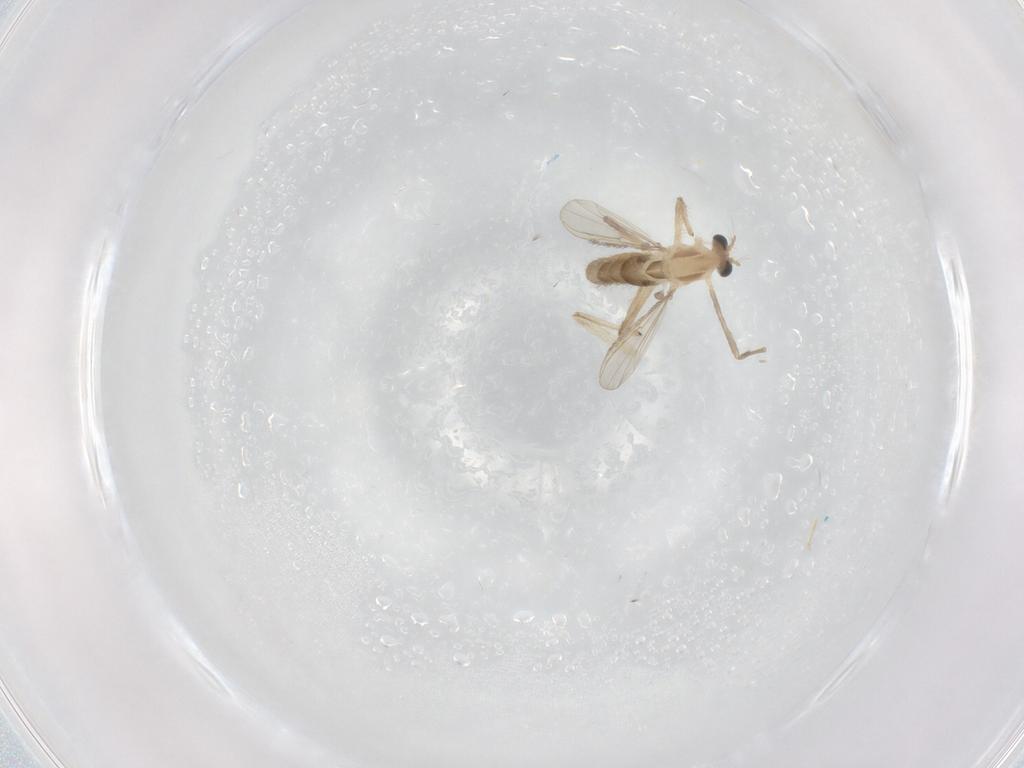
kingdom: Animalia
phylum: Arthropoda
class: Insecta
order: Diptera
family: Chironomidae
